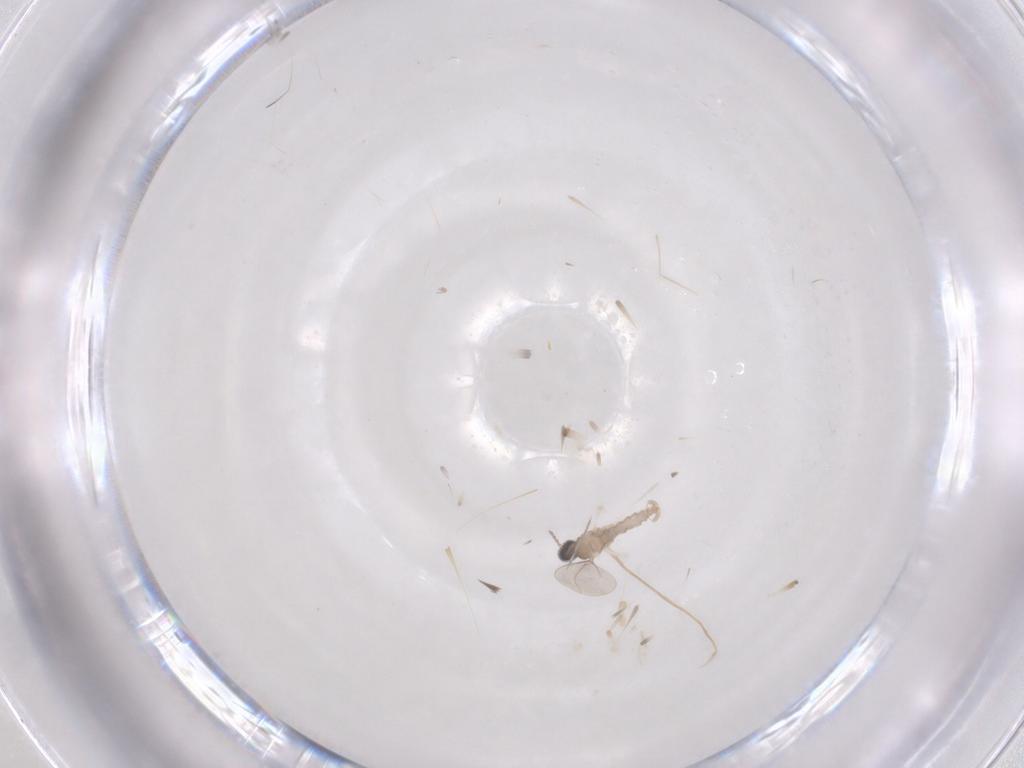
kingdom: Animalia
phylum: Arthropoda
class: Insecta
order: Diptera
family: Cecidomyiidae
